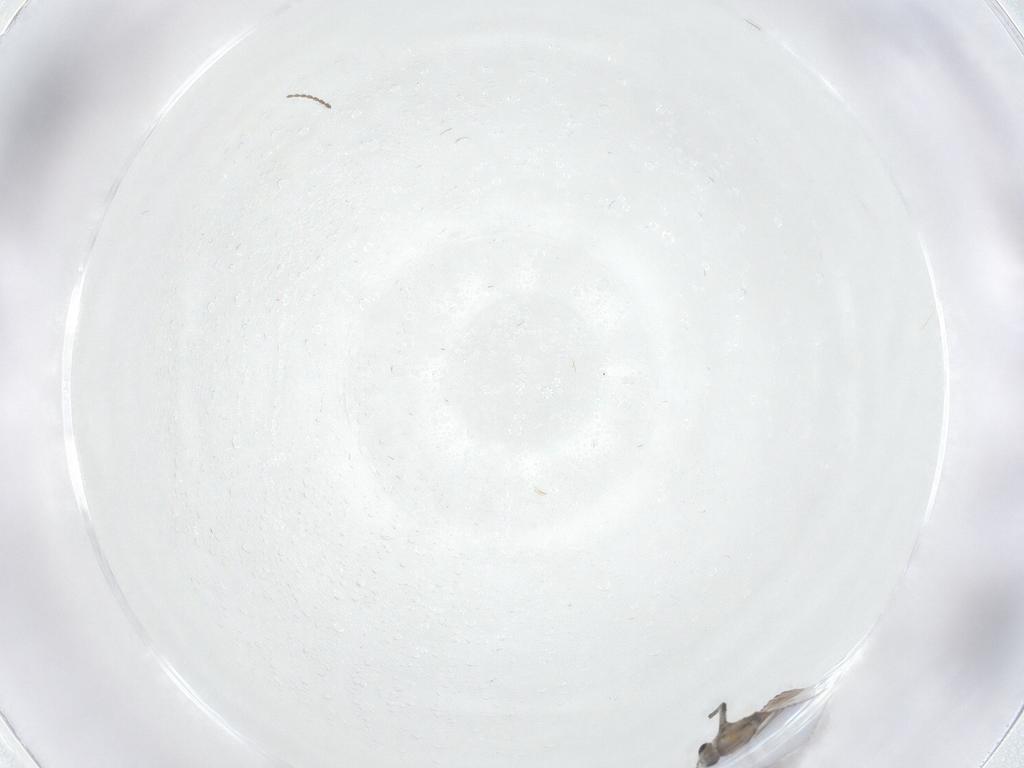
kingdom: Animalia
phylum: Arthropoda
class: Insecta
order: Diptera
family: Chironomidae
